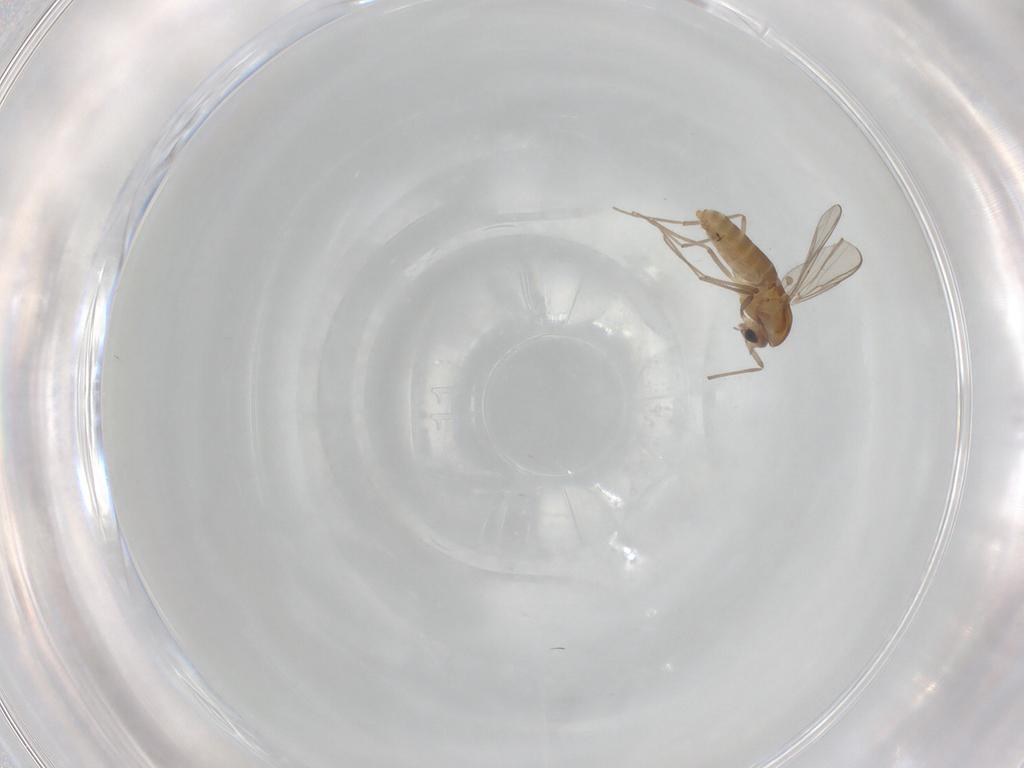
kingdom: Animalia
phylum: Arthropoda
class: Insecta
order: Diptera
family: Chironomidae
